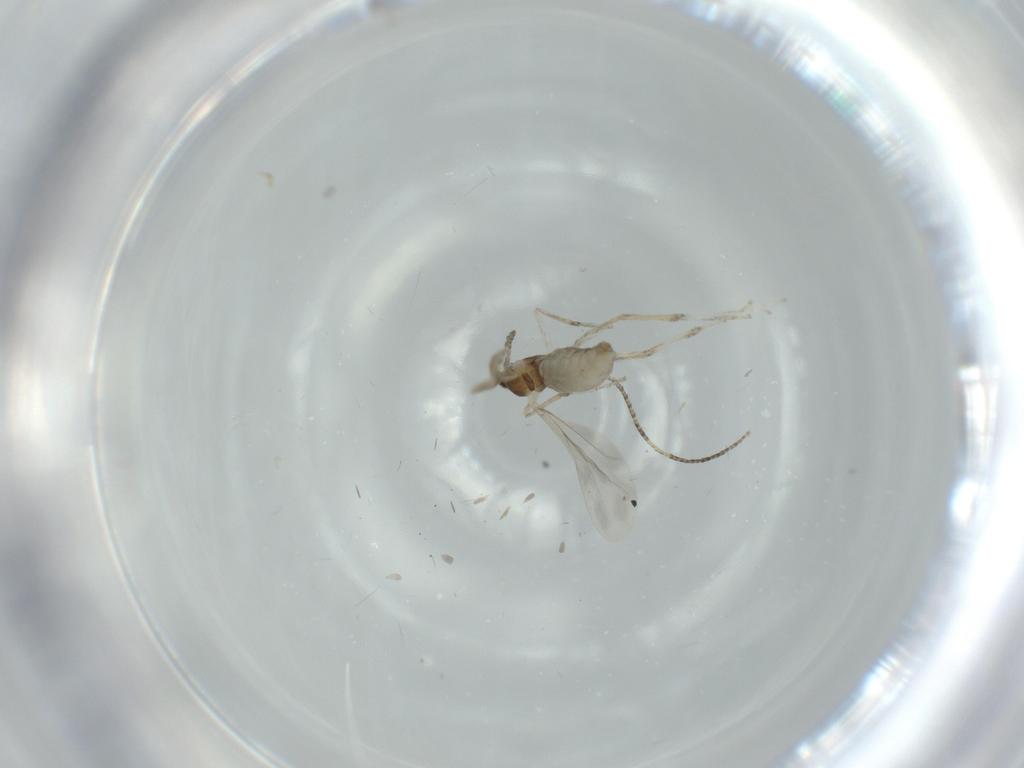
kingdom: Animalia
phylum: Arthropoda
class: Insecta
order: Diptera
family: Cecidomyiidae
